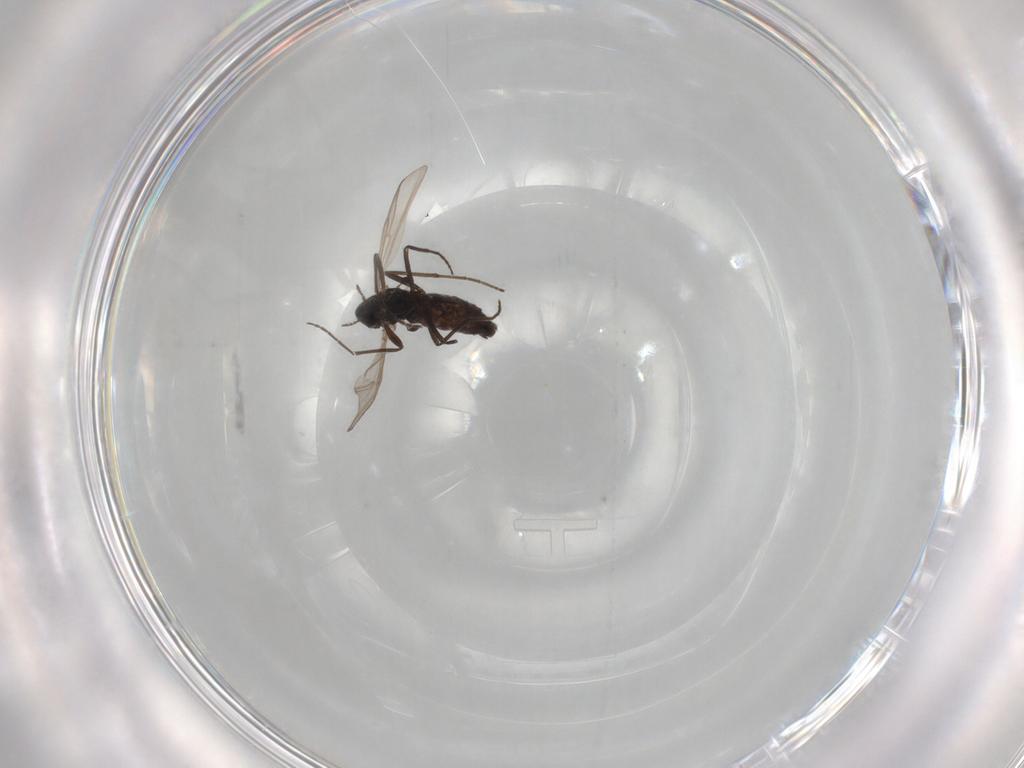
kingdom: Animalia
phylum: Arthropoda
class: Insecta
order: Diptera
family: Chironomidae
